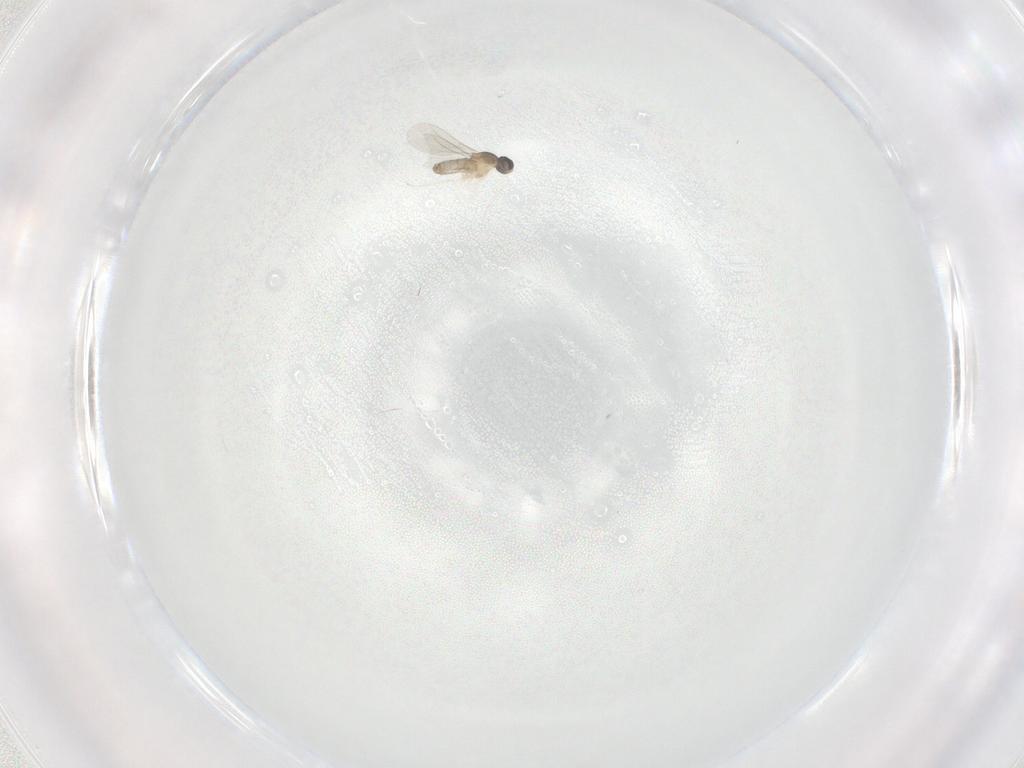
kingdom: Animalia
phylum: Arthropoda
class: Insecta
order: Diptera
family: Cecidomyiidae
